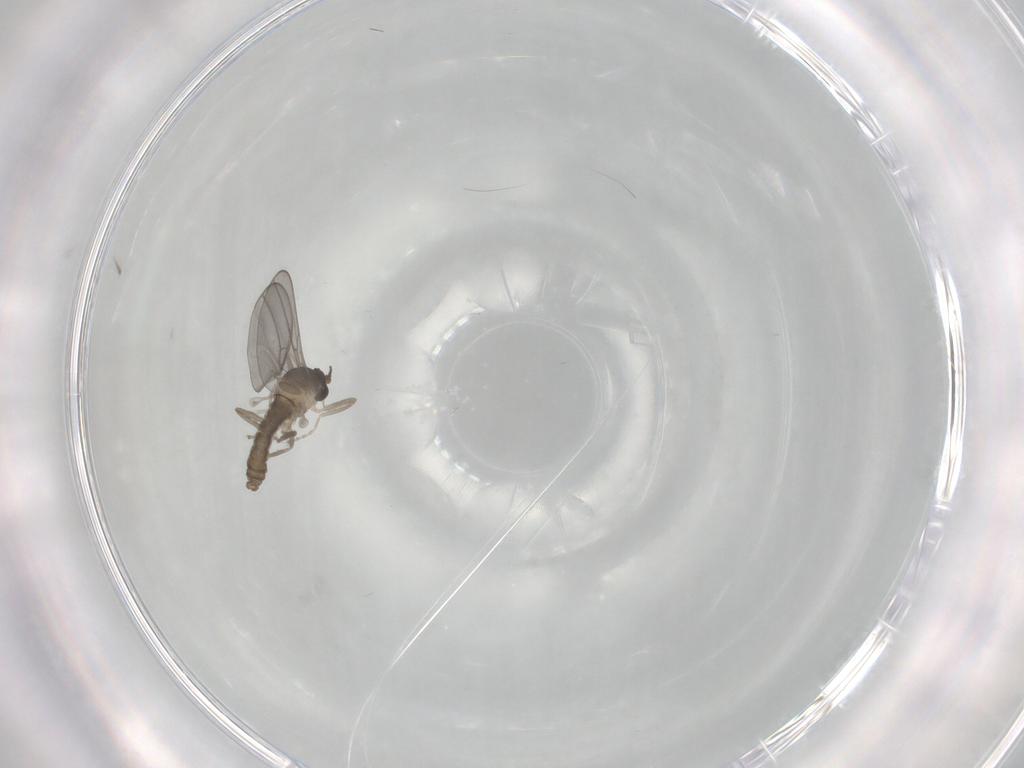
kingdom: Animalia
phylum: Arthropoda
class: Insecta
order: Diptera
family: Cecidomyiidae
